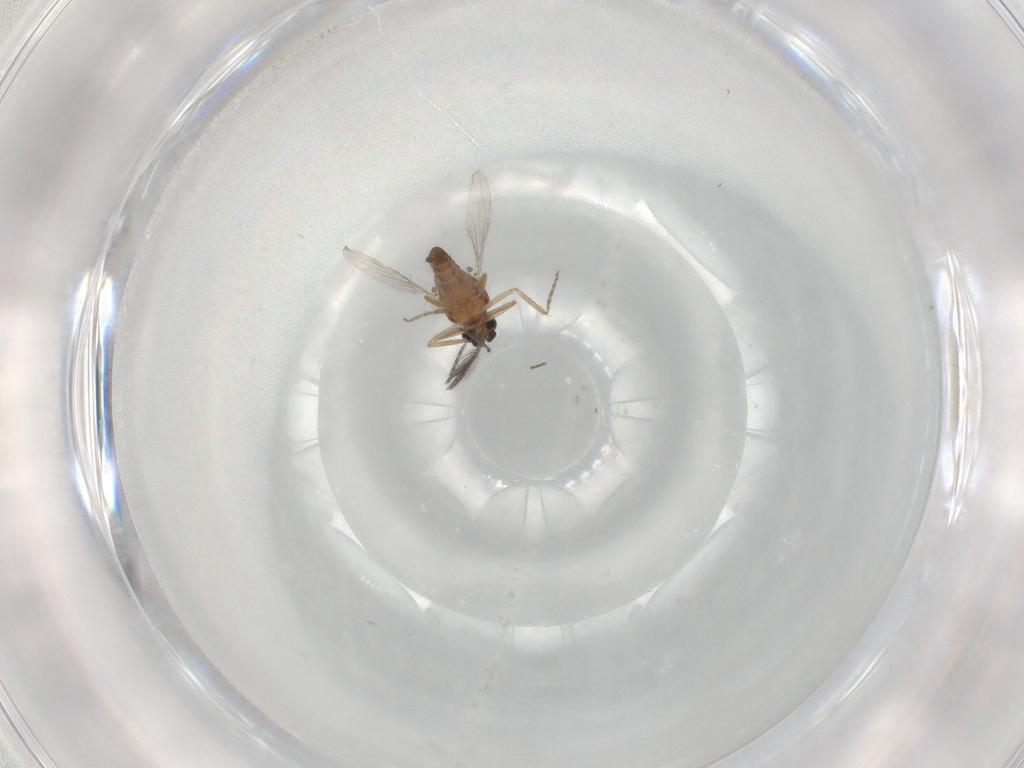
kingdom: Animalia
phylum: Arthropoda
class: Insecta
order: Diptera
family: Ceratopogonidae
